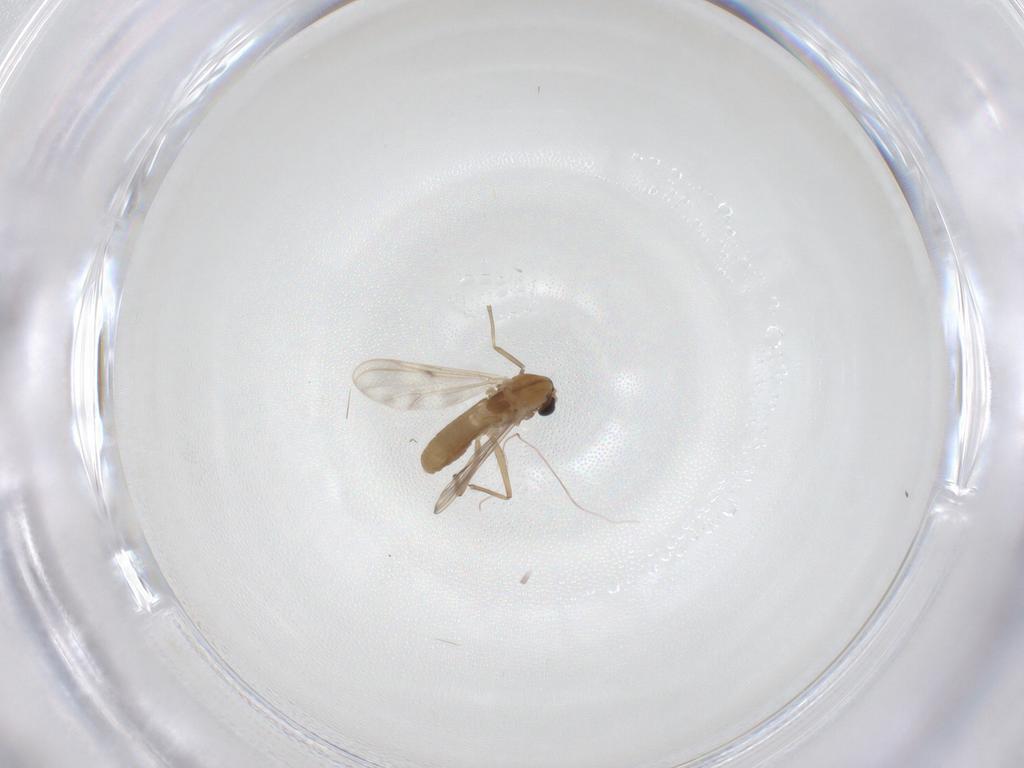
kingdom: Animalia
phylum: Arthropoda
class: Insecta
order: Diptera
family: Chironomidae
